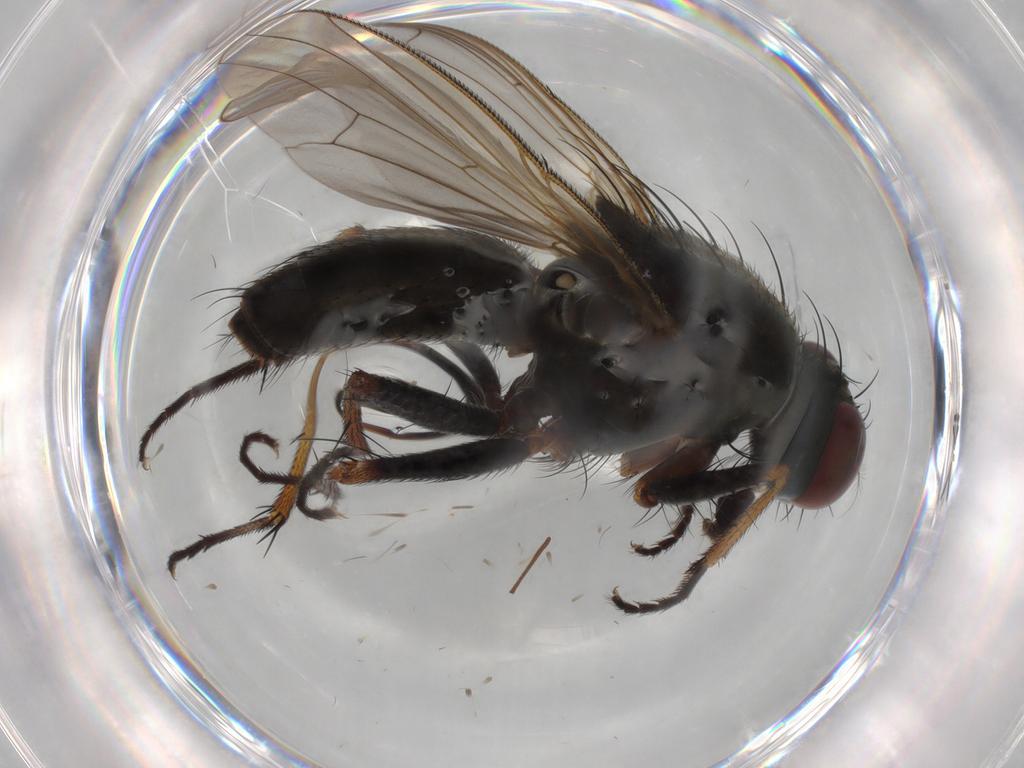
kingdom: Animalia
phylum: Arthropoda
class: Insecta
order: Diptera
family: Muscidae
